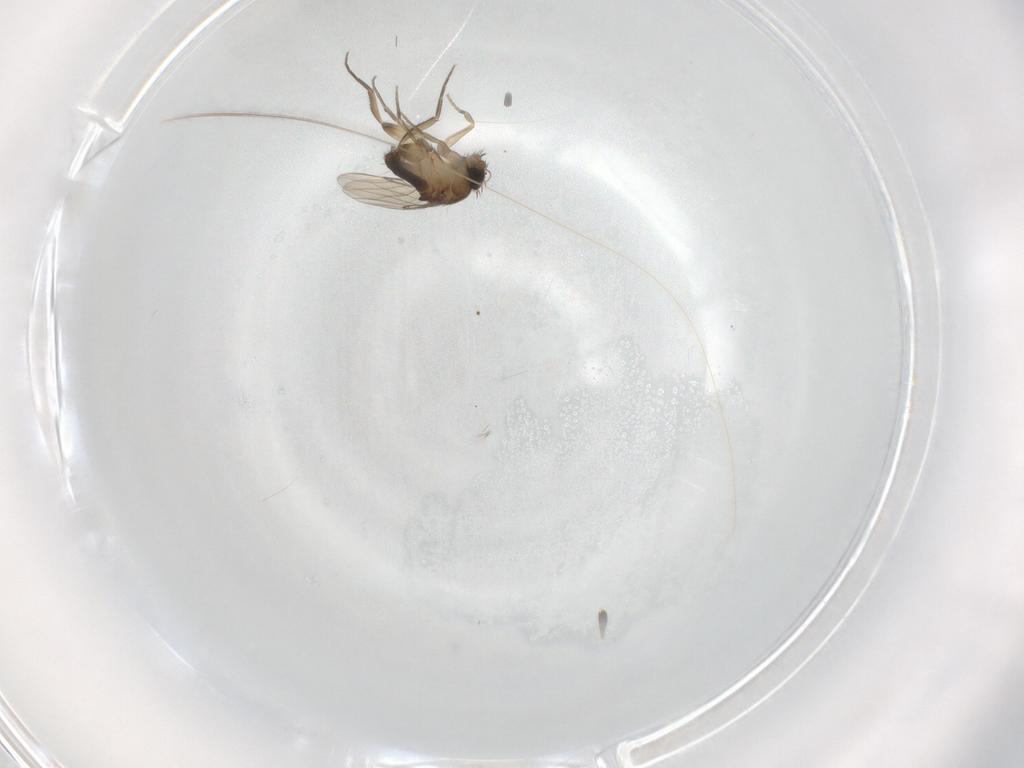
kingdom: Animalia
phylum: Arthropoda
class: Insecta
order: Diptera
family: Phoridae
